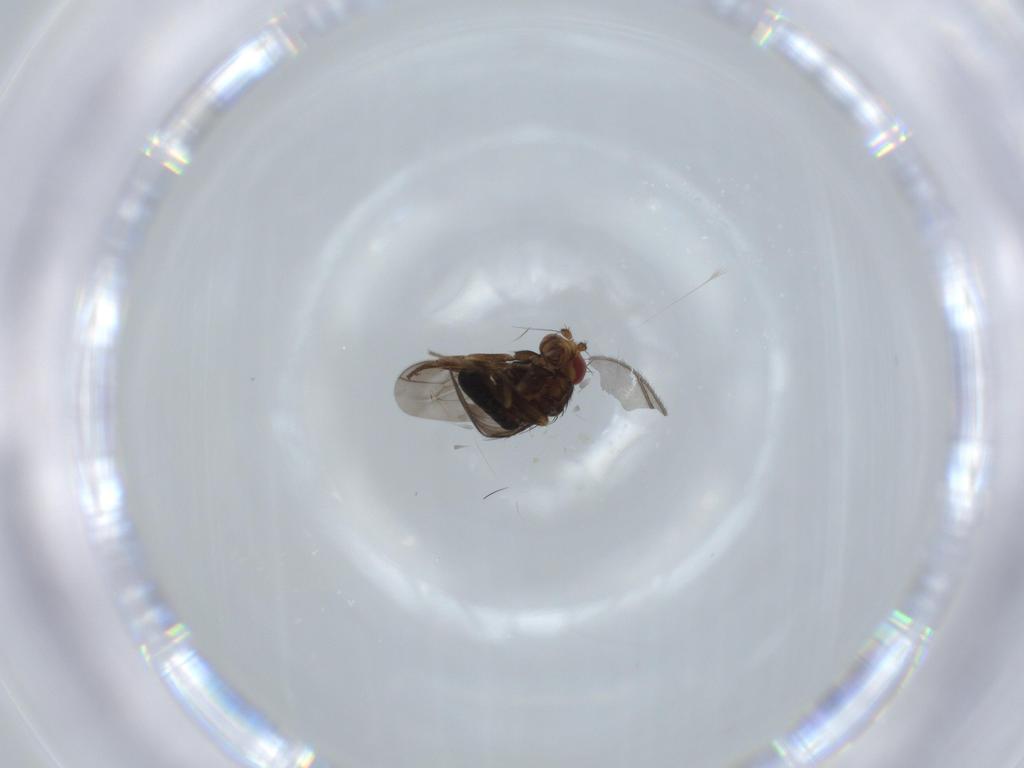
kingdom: Animalia
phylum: Arthropoda
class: Insecta
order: Diptera
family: Sphaeroceridae
